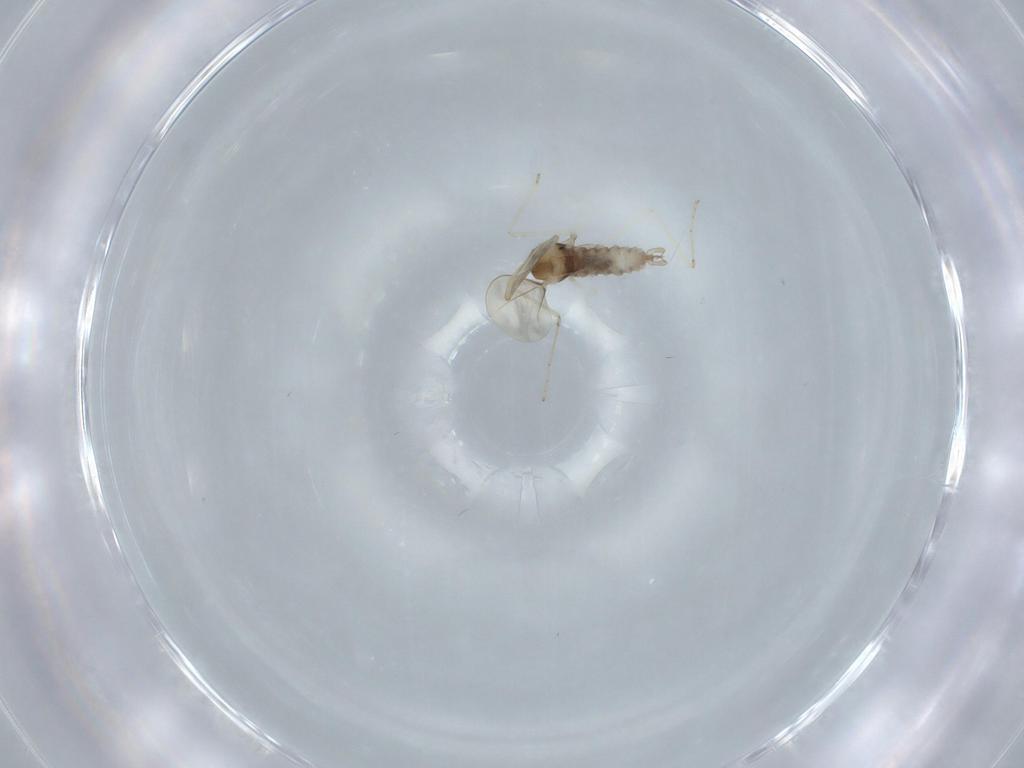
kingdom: Animalia
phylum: Arthropoda
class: Insecta
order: Diptera
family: Cecidomyiidae
